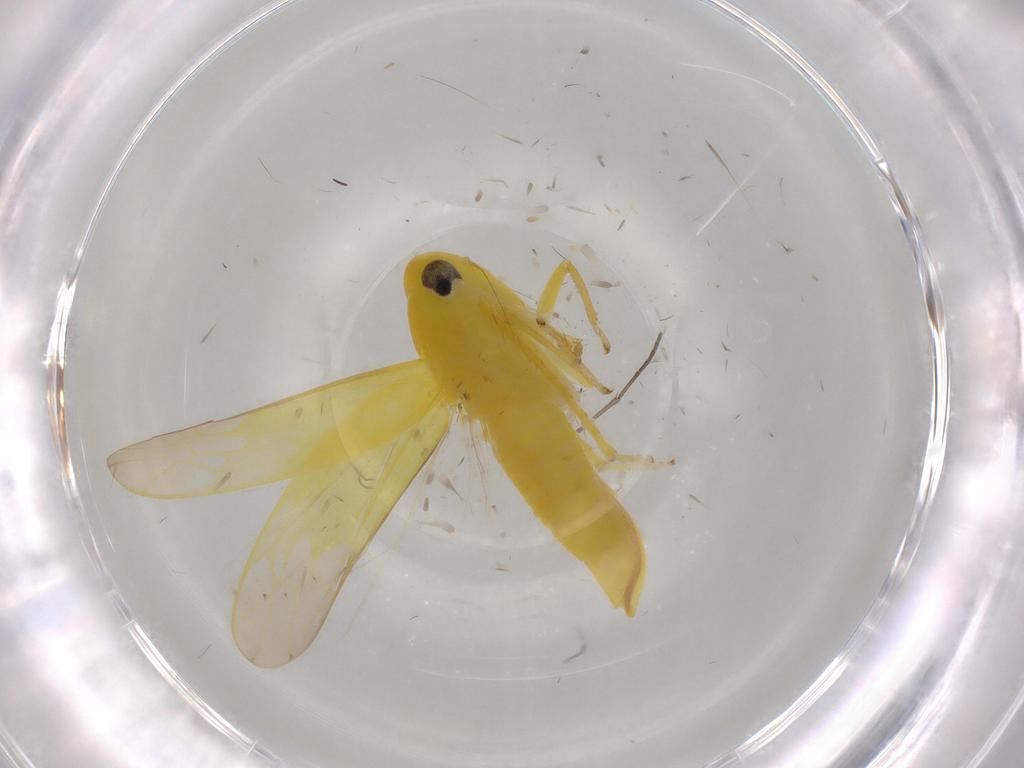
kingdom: Animalia
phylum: Arthropoda
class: Insecta
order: Hemiptera
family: Cicadellidae
